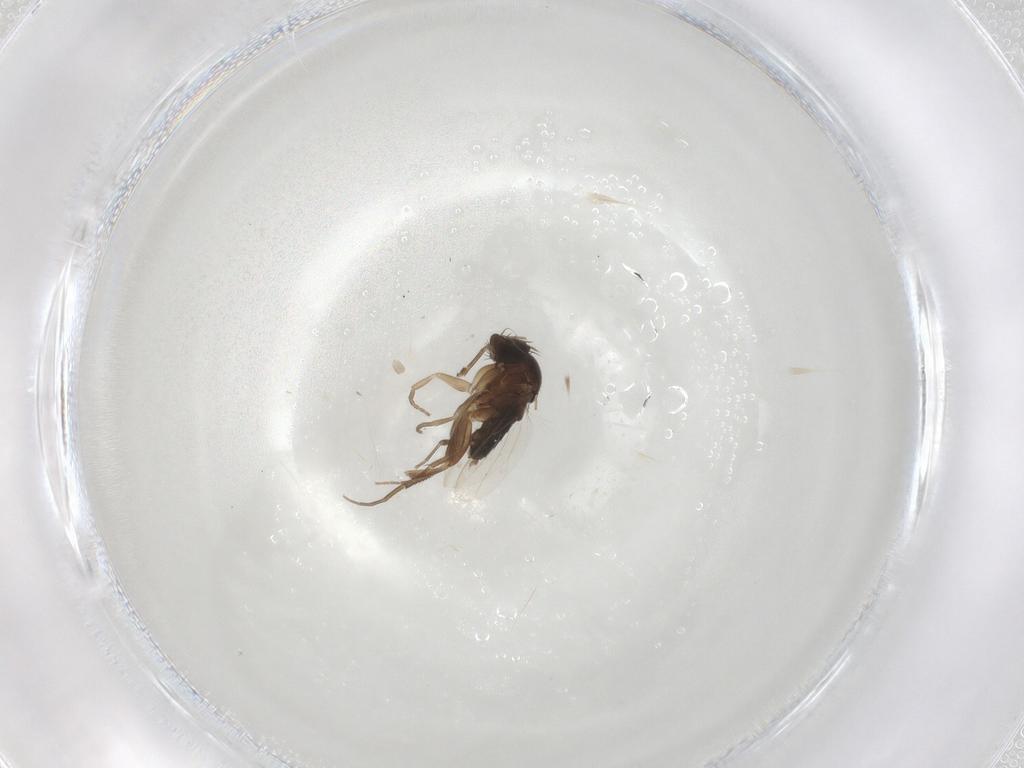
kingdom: Animalia
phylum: Arthropoda
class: Insecta
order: Diptera
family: Phoridae
